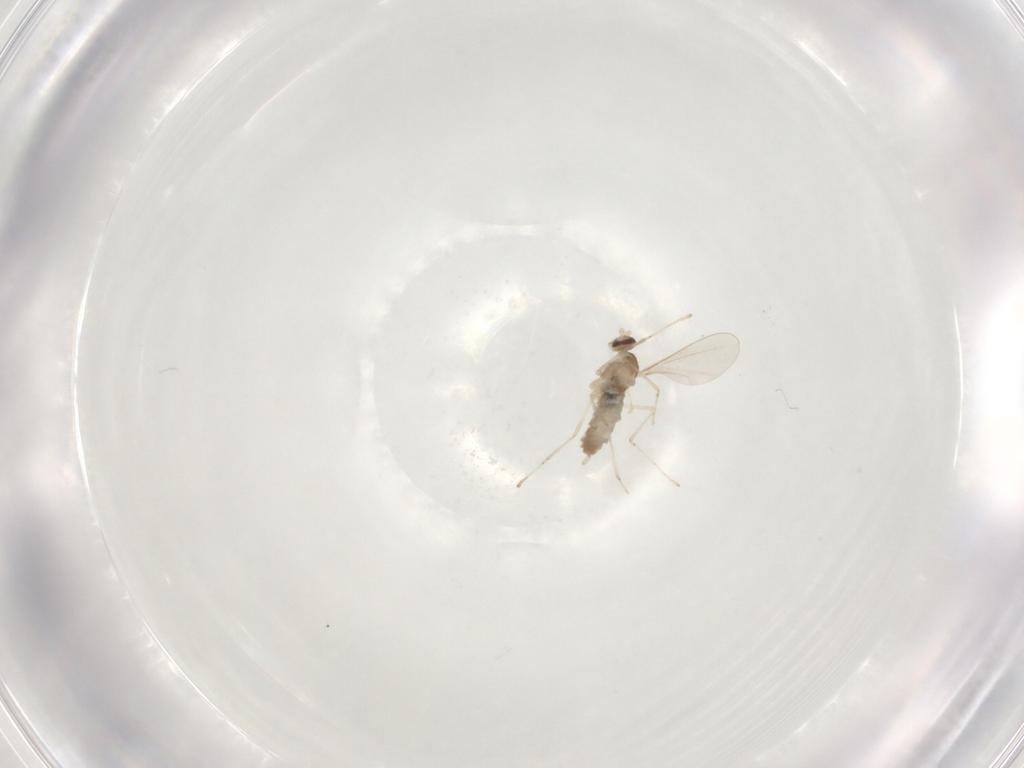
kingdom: Animalia
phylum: Arthropoda
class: Insecta
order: Diptera
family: Cecidomyiidae
